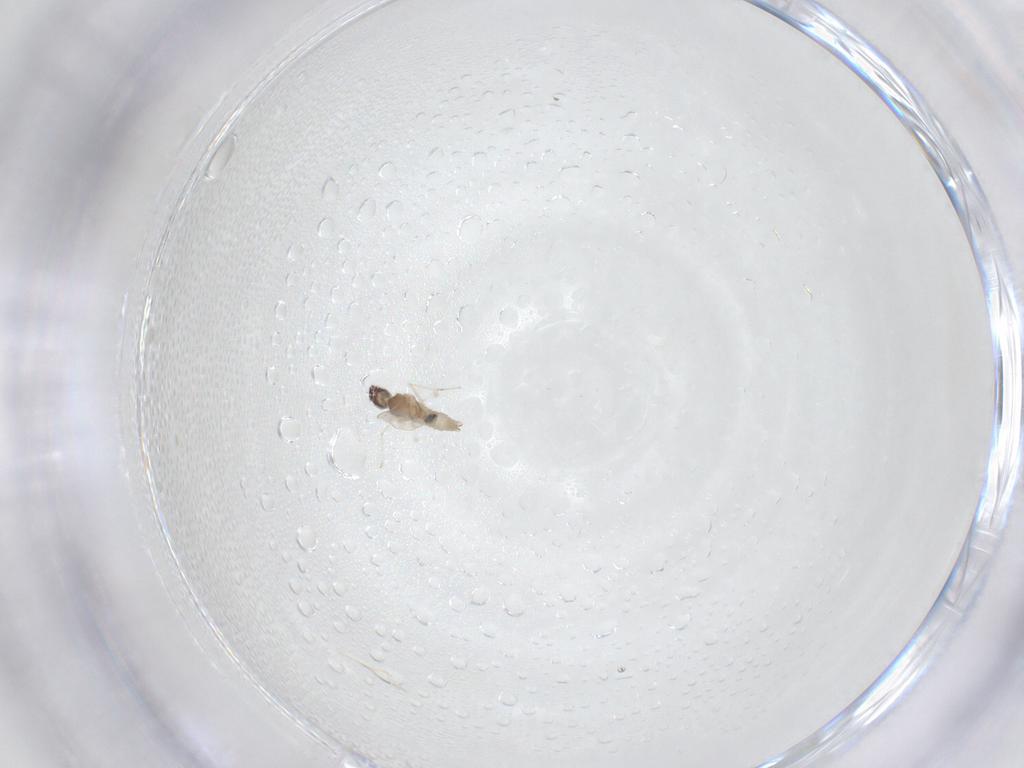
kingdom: Animalia
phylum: Arthropoda
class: Insecta
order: Diptera
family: Cecidomyiidae
